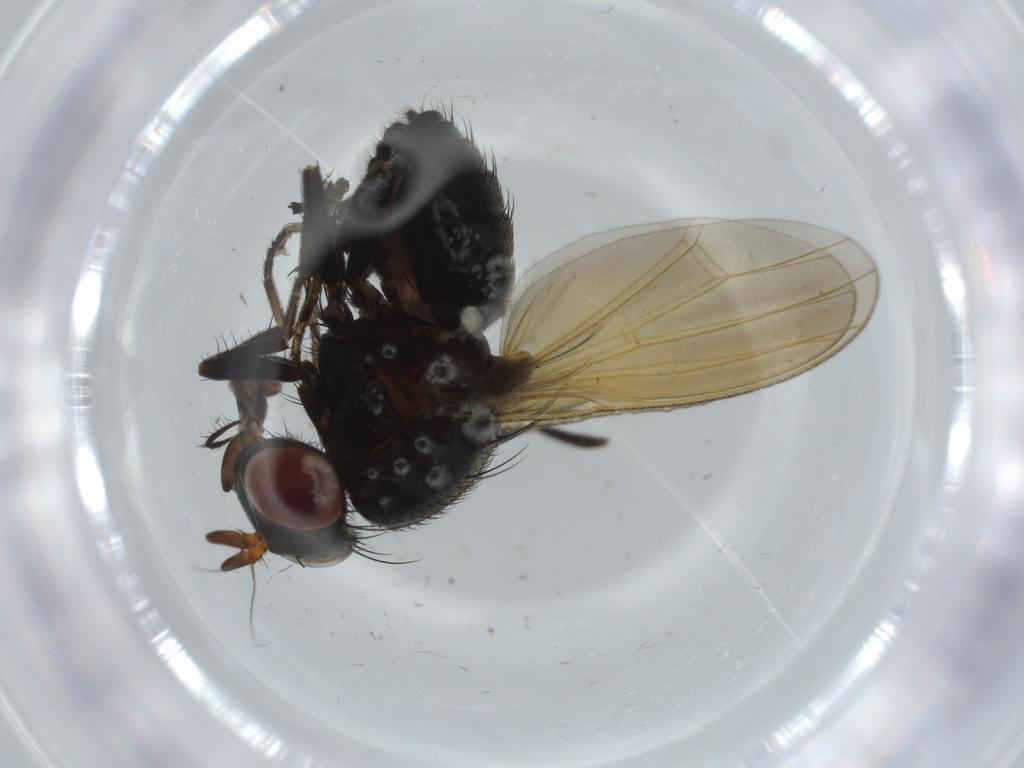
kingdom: Animalia
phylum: Arthropoda
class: Insecta
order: Diptera
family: Lauxaniidae
